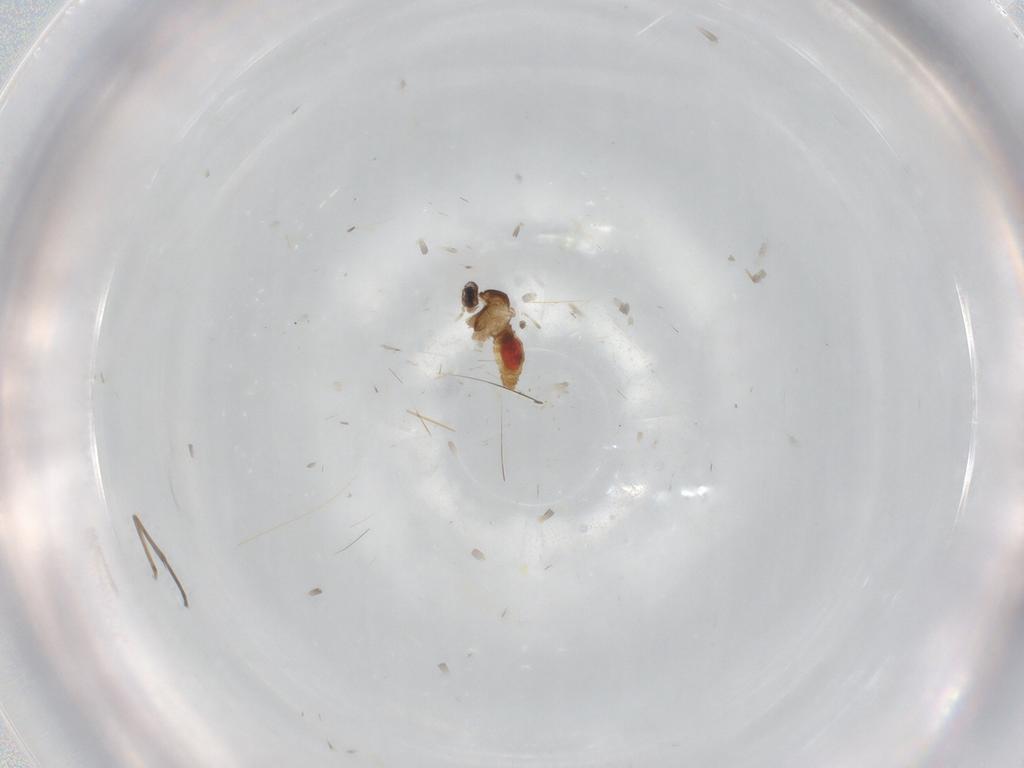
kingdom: Animalia
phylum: Arthropoda
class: Insecta
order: Diptera
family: Cecidomyiidae
